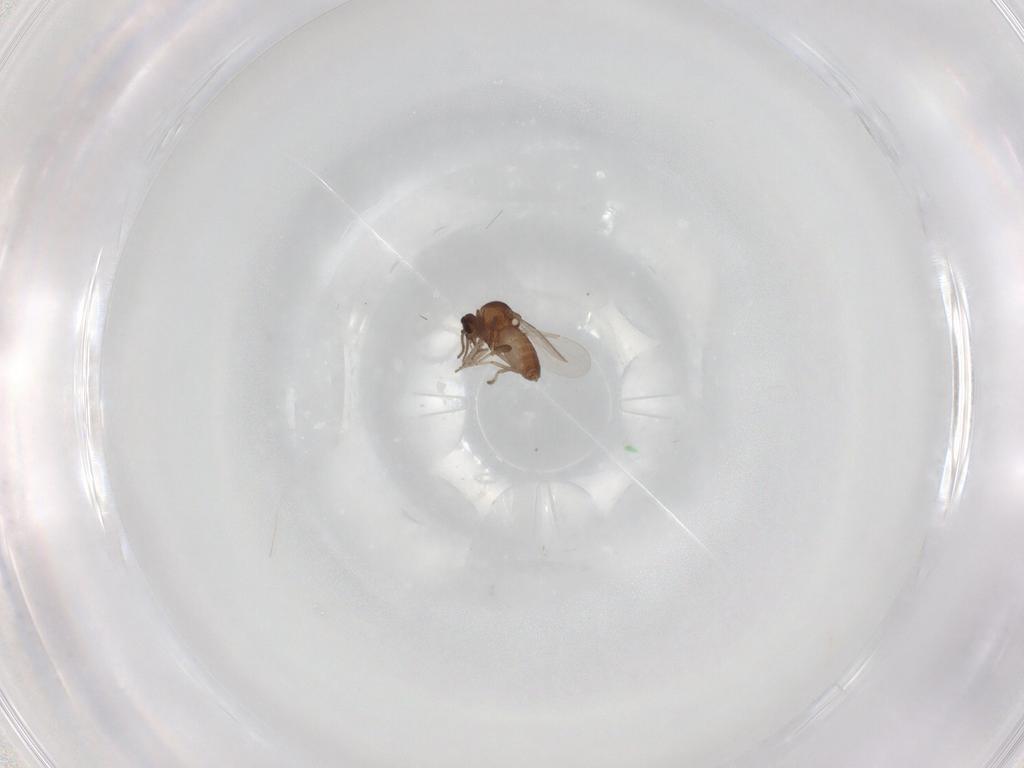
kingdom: Animalia
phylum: Arthropoda
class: Insecta
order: Diptera
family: Ceratopogonidae
